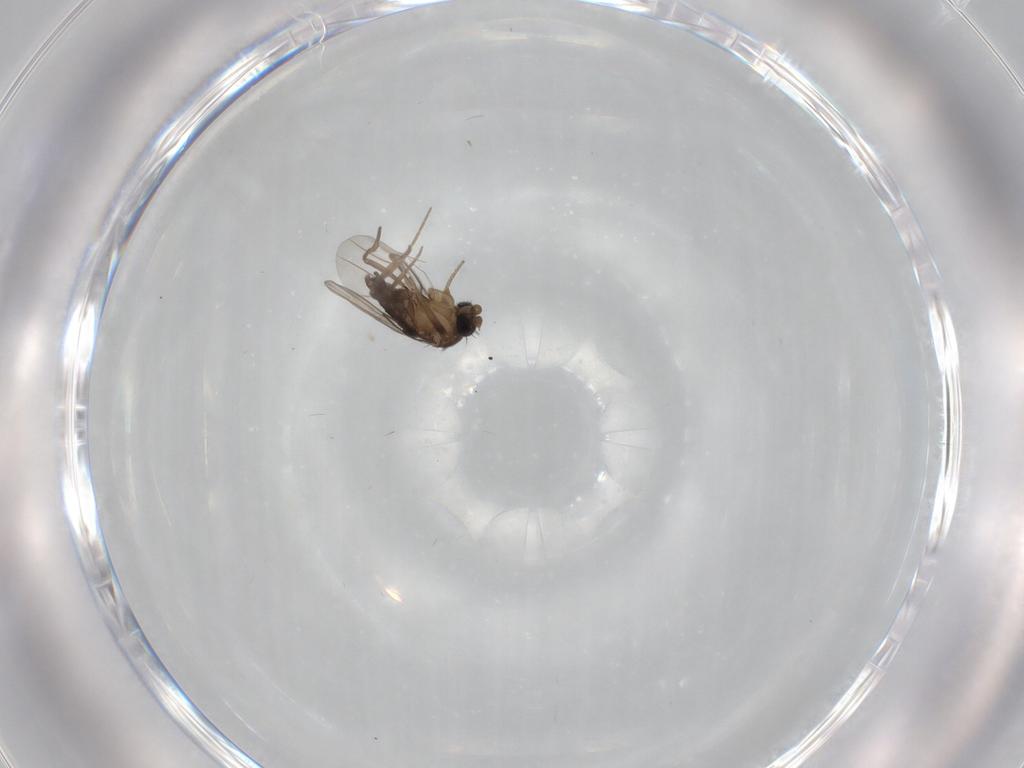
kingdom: Animalia
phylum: Arthropoda
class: Insecta
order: Diptera
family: Phoridae
